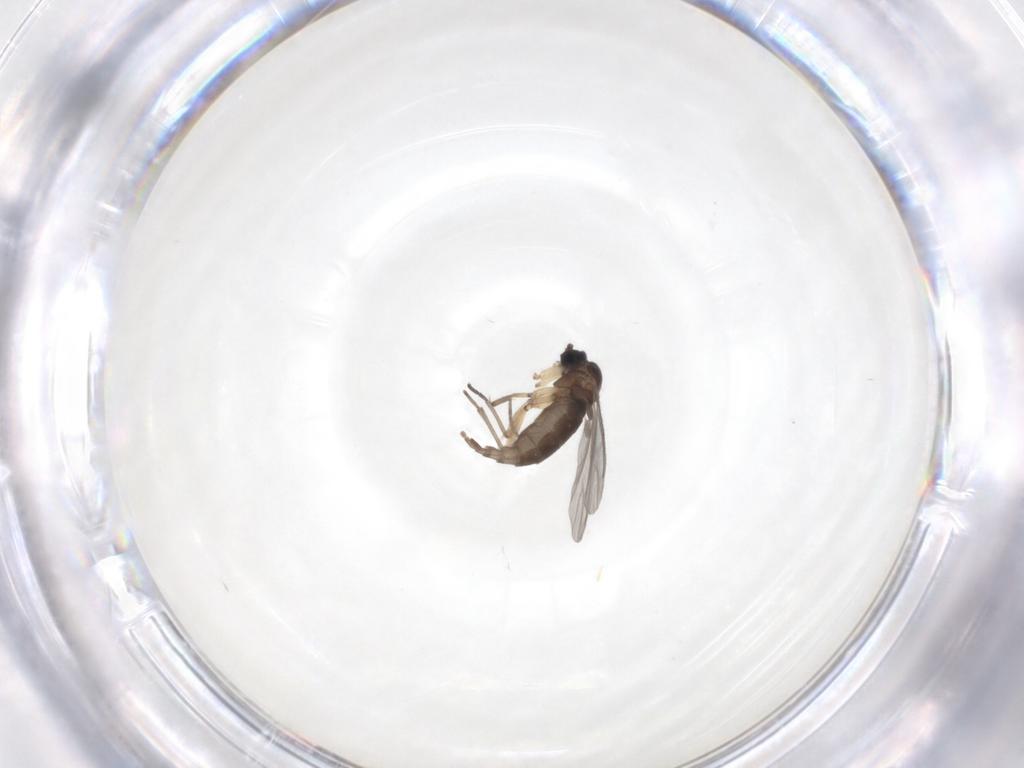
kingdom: Animalia
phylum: Arthropoda
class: Insecta
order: Diptera
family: Sciaridae
